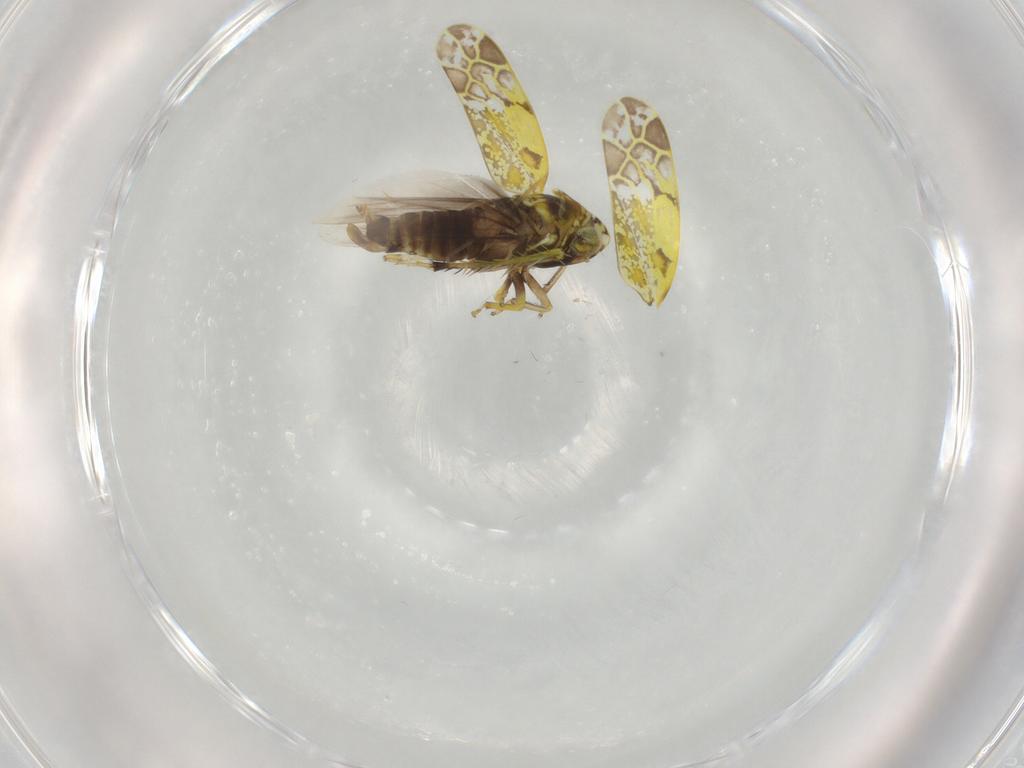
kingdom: Animalia
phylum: Arthropoda
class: Insecta
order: Hemiptera
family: Cicadellidae
